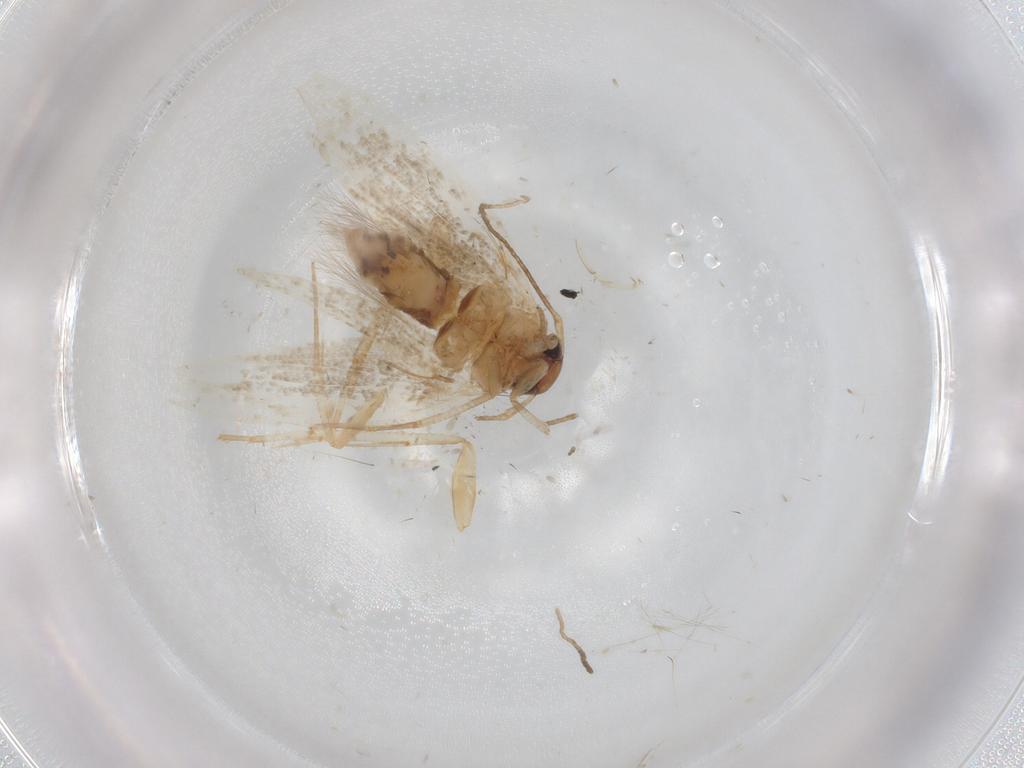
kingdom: Animalia
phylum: Arthropoda
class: Insecta
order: Lepidoptera
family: Cosmopterigidae
